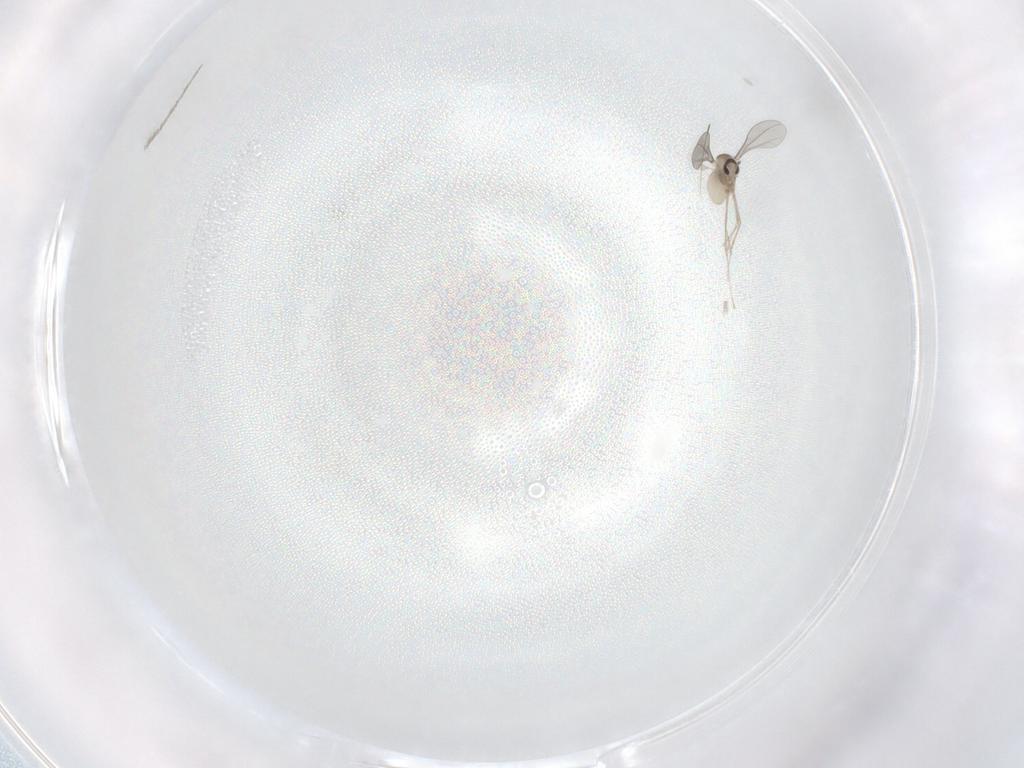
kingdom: Animalia
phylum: Arthropoda
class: Insecta
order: Diptera
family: Cecidomyiidae
